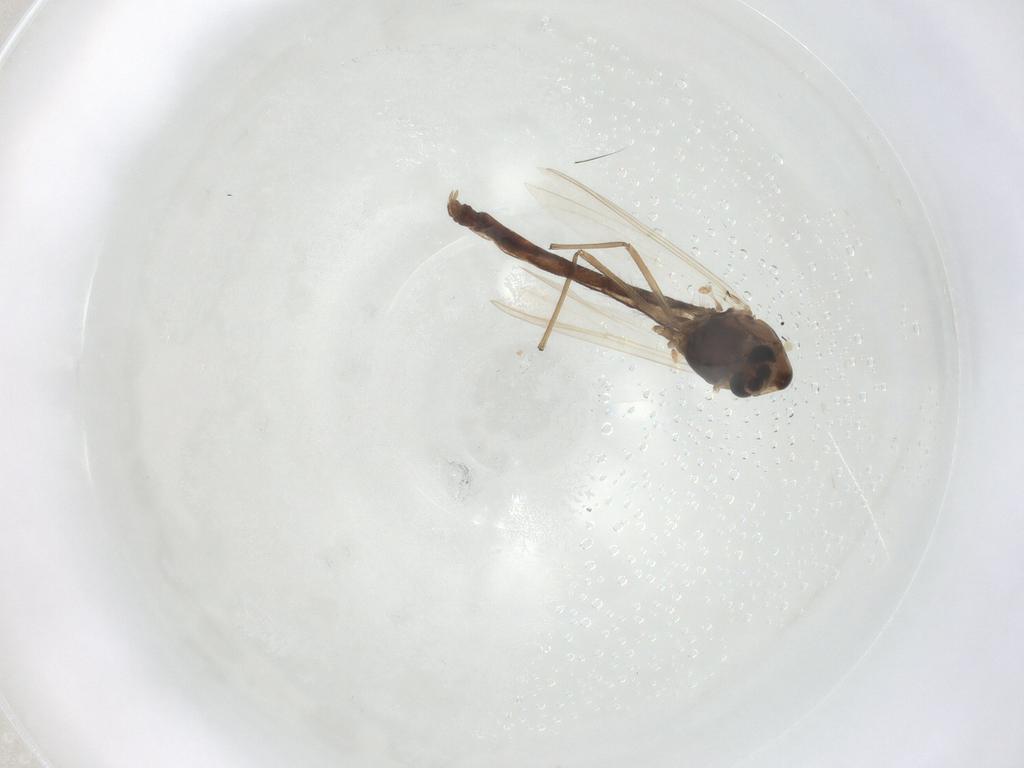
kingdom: Animalia
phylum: Arthropoda
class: Insecta
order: Diptera
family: Chironomidae
